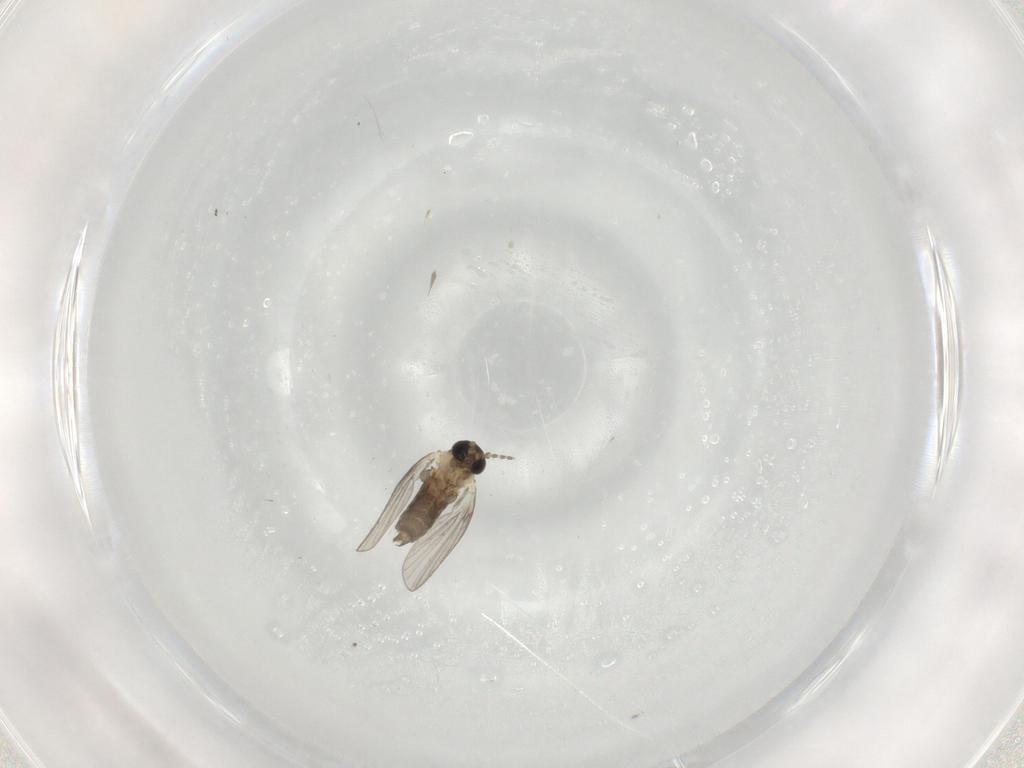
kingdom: Animalia
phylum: Arthropoda
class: Insecta
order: Diptera
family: Psychodidae
